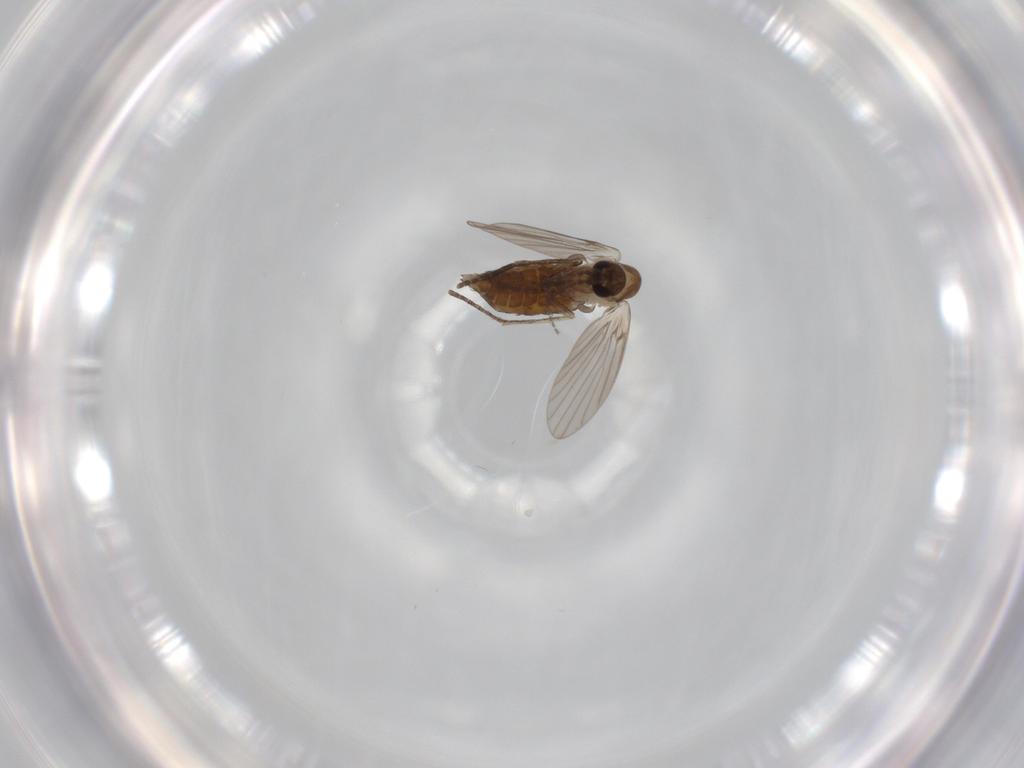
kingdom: Animalia
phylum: Arthropoda
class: Insecta
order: Diptera
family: Psychodidae
